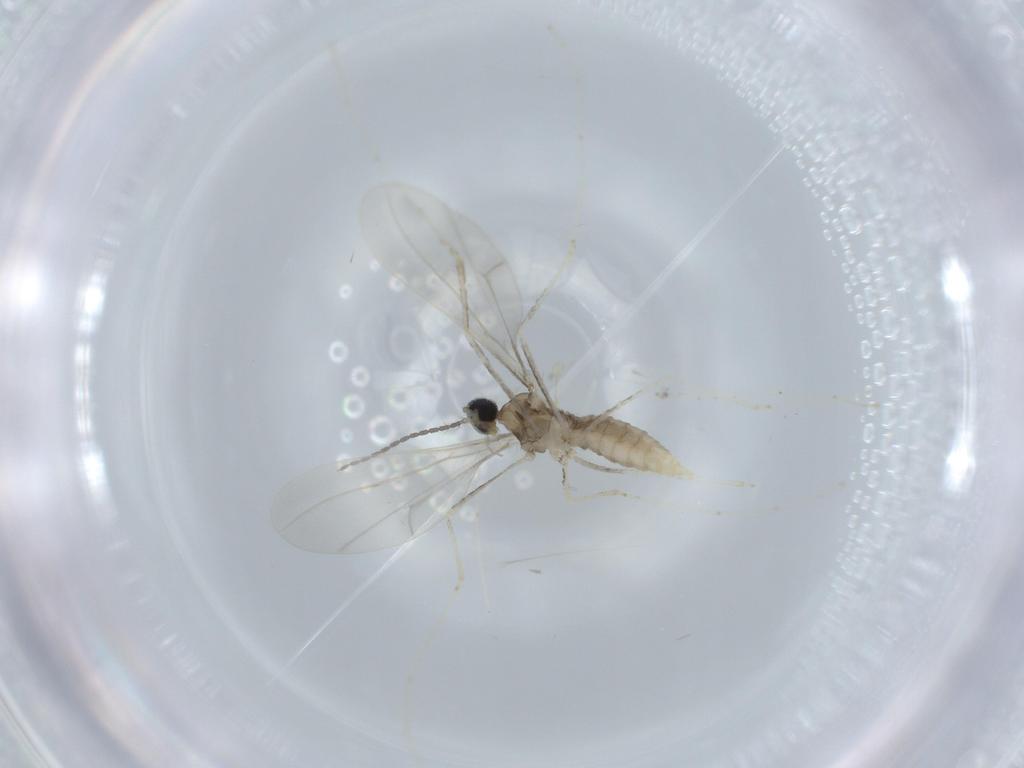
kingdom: Animalia
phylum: Arthropoda
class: Insecta
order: Diptera
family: Cecidomyiidae
